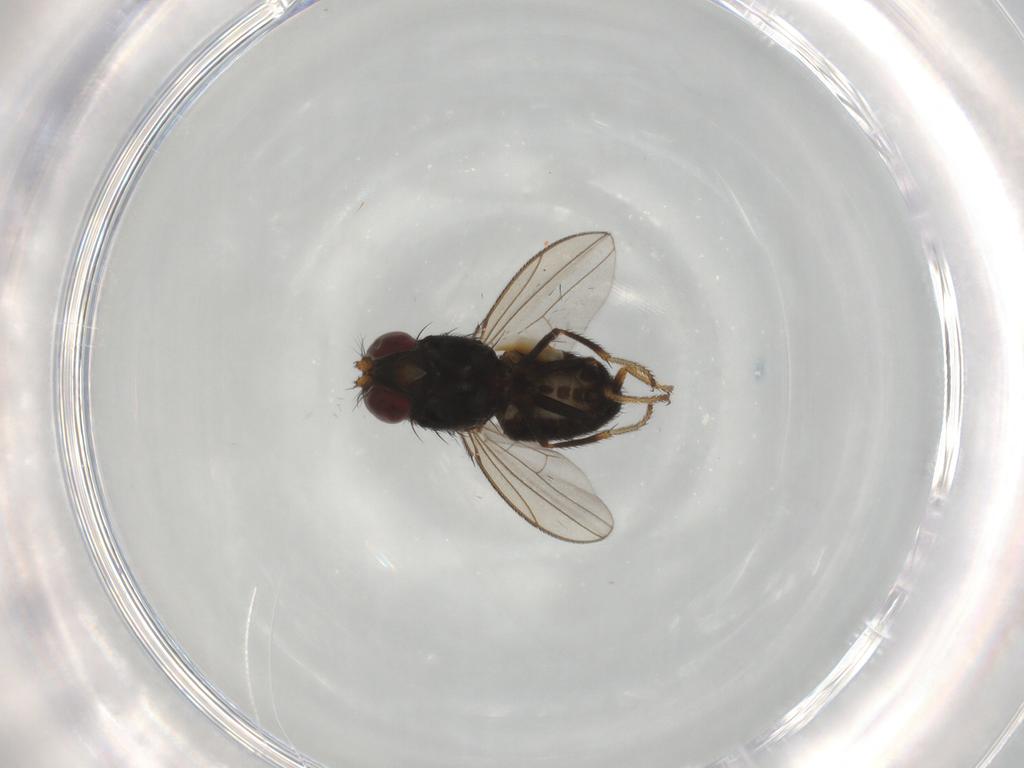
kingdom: Animalia
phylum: Arthropoda
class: Insecta
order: Diptera
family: Ephydridae
